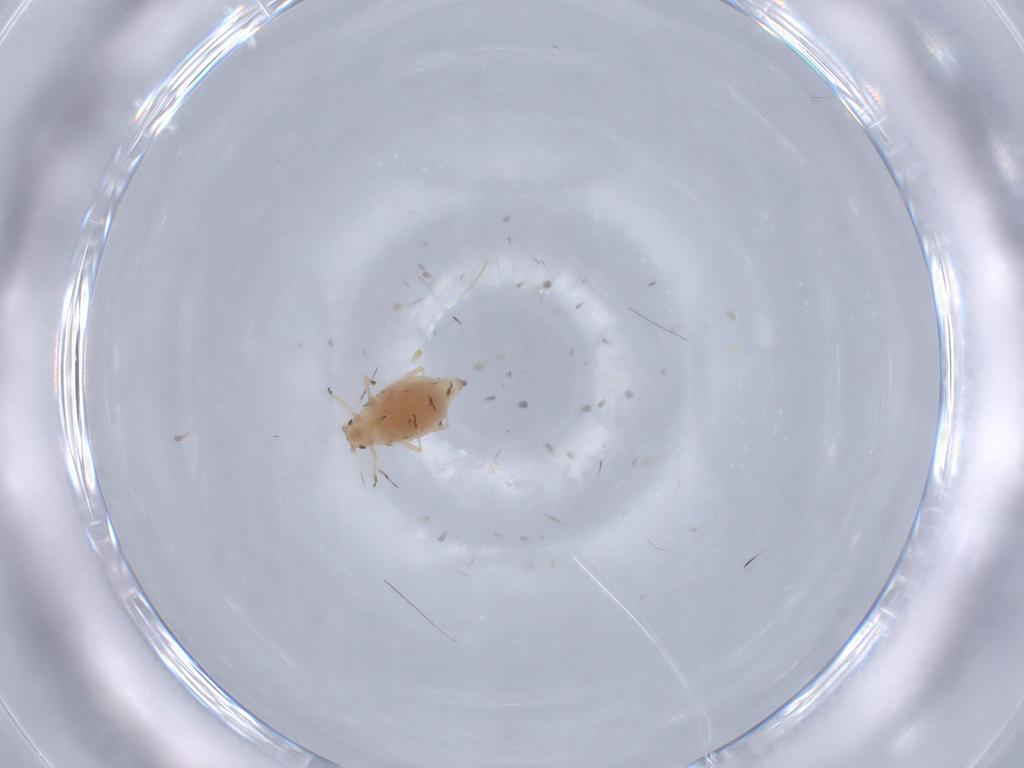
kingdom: Animalia
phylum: Arthropoda
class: Insecta
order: Hemiptera
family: Aphididae
